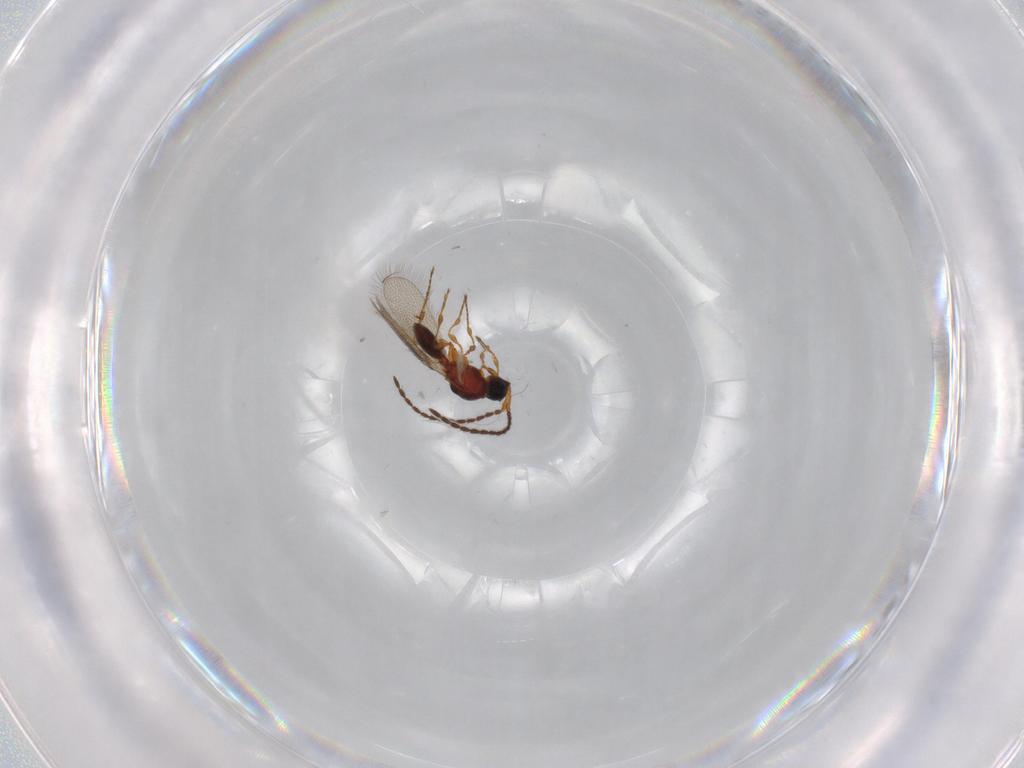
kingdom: Animalia
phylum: Arthropoda
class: Insecta
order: Hymenoptera
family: Diapriidae
